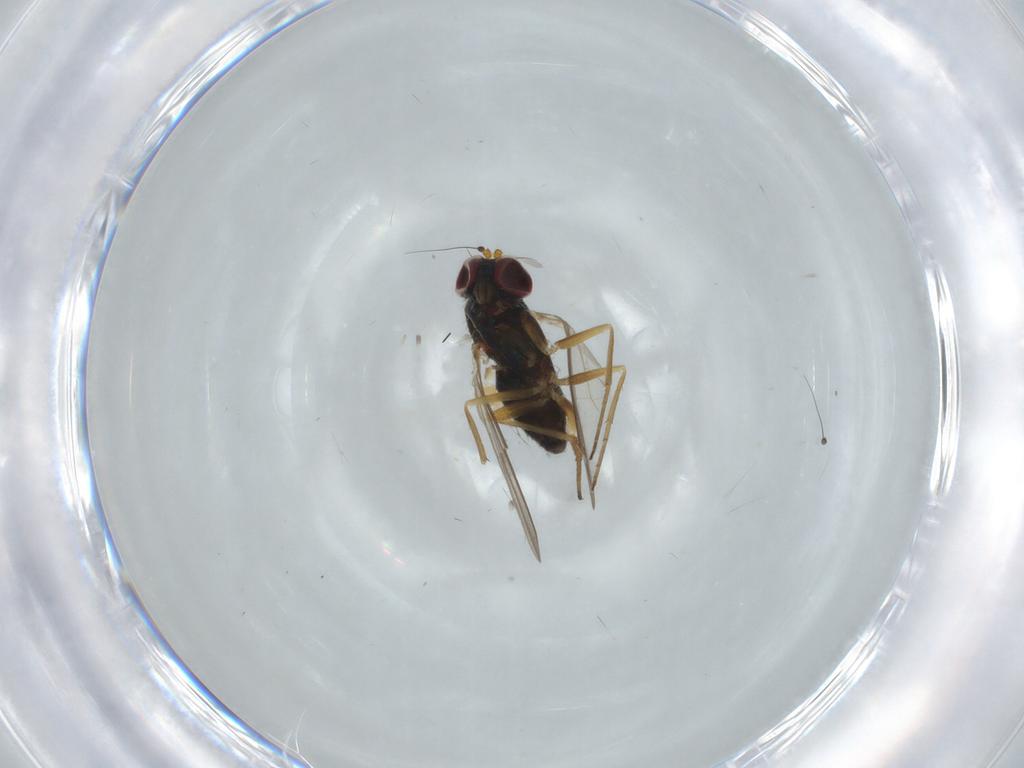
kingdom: Animalia
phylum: Arthropoda
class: Insecta
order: Diptera
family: Dolichopodidae
